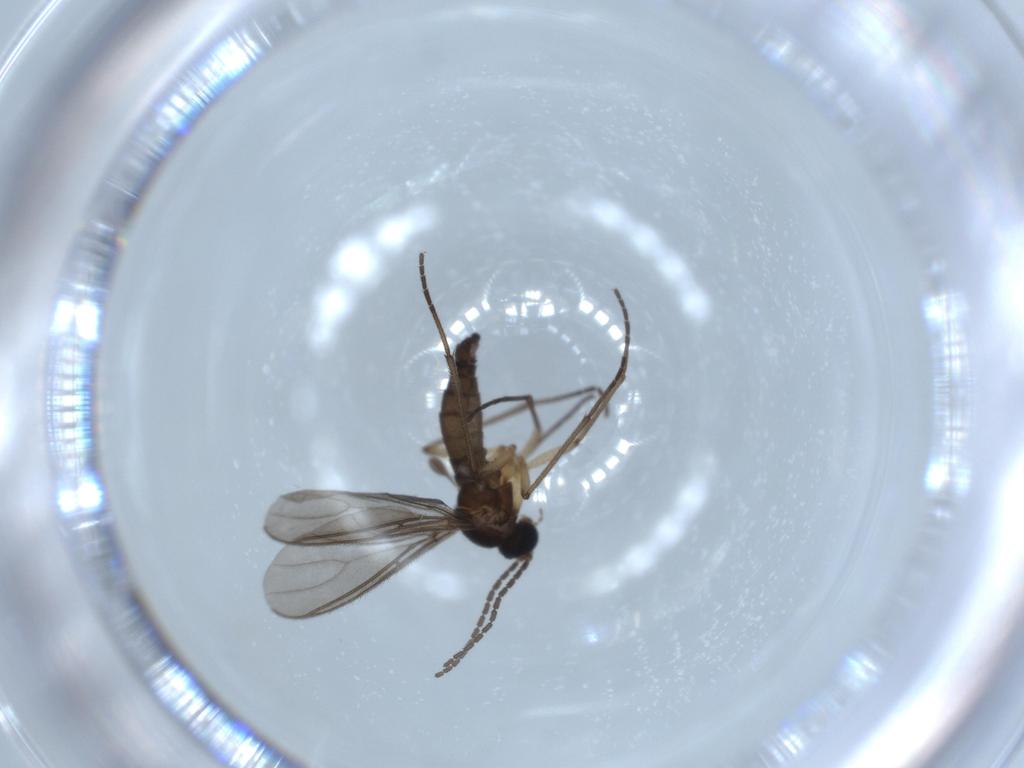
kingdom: Animalia
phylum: Arthropoda
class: Insecta
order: Diptera
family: Sciaridae
